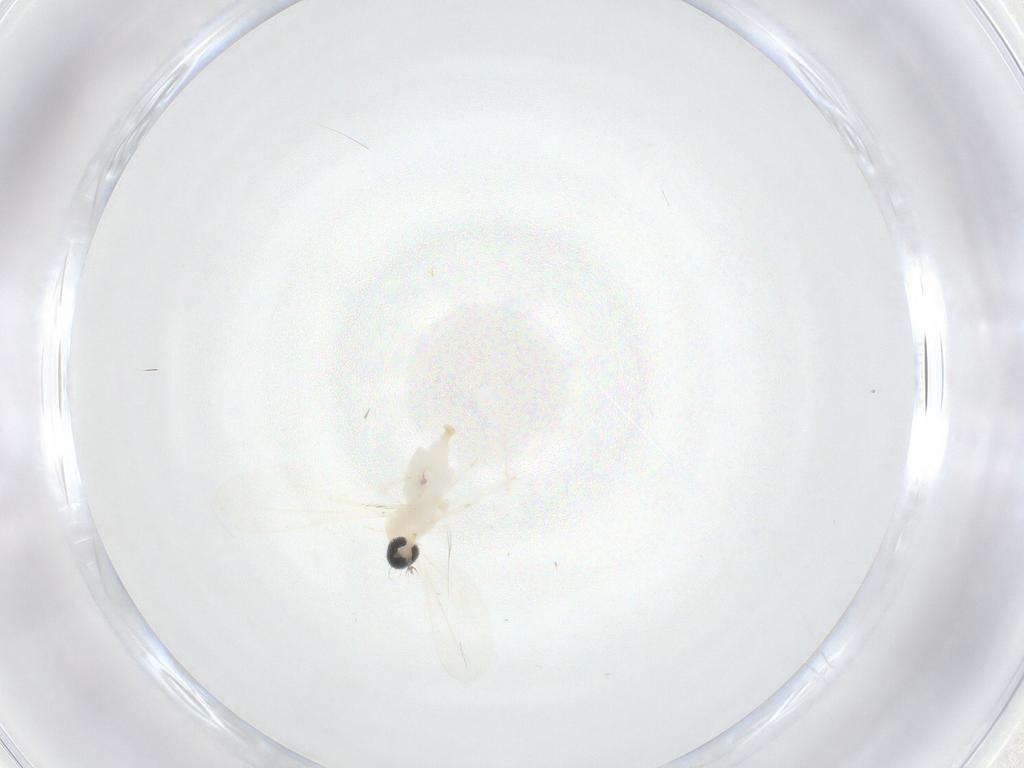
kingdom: Animalia
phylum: Arthropoda
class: Insecta
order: Diptera
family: Cecidomyiidae
